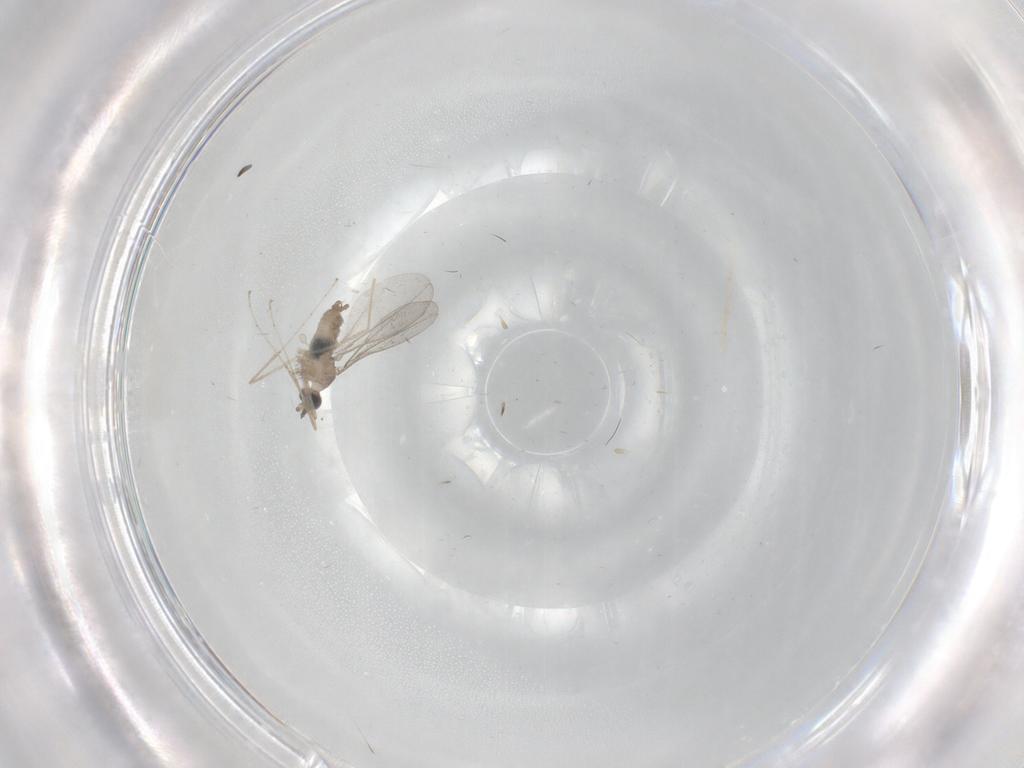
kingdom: Animalia
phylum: Arthropoda
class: Insecta
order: Diptera
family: Cecidomyiidae
